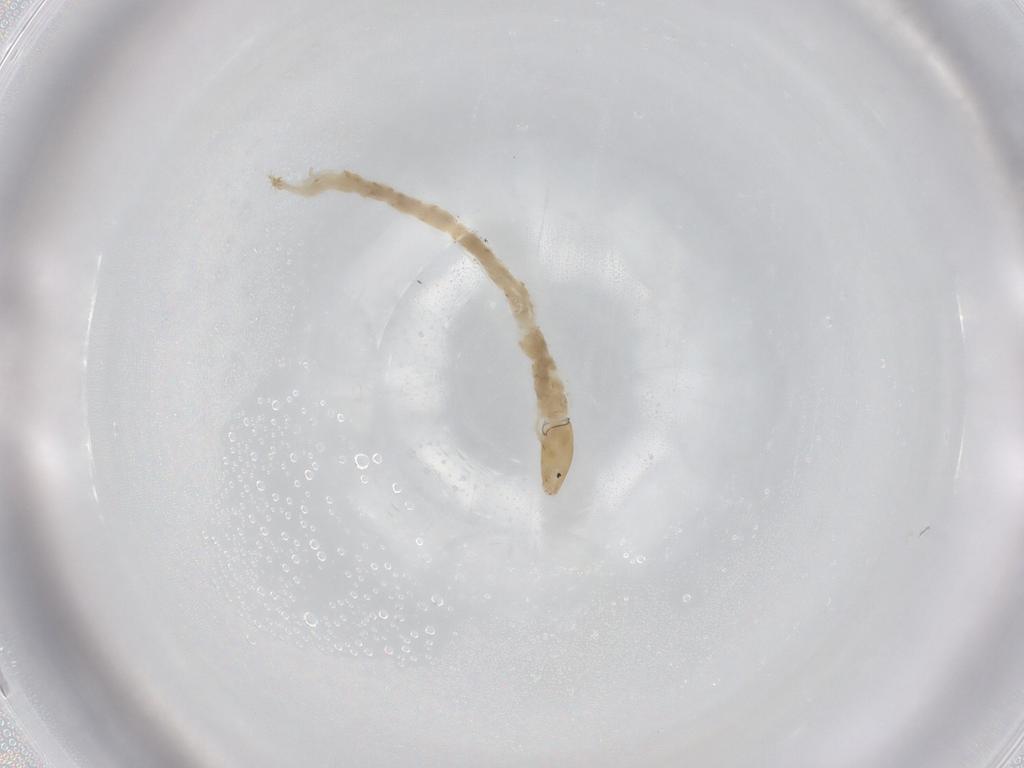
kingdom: Animalia
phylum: Arthropoda
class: Insecta
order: Diptera
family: Chironomidae
